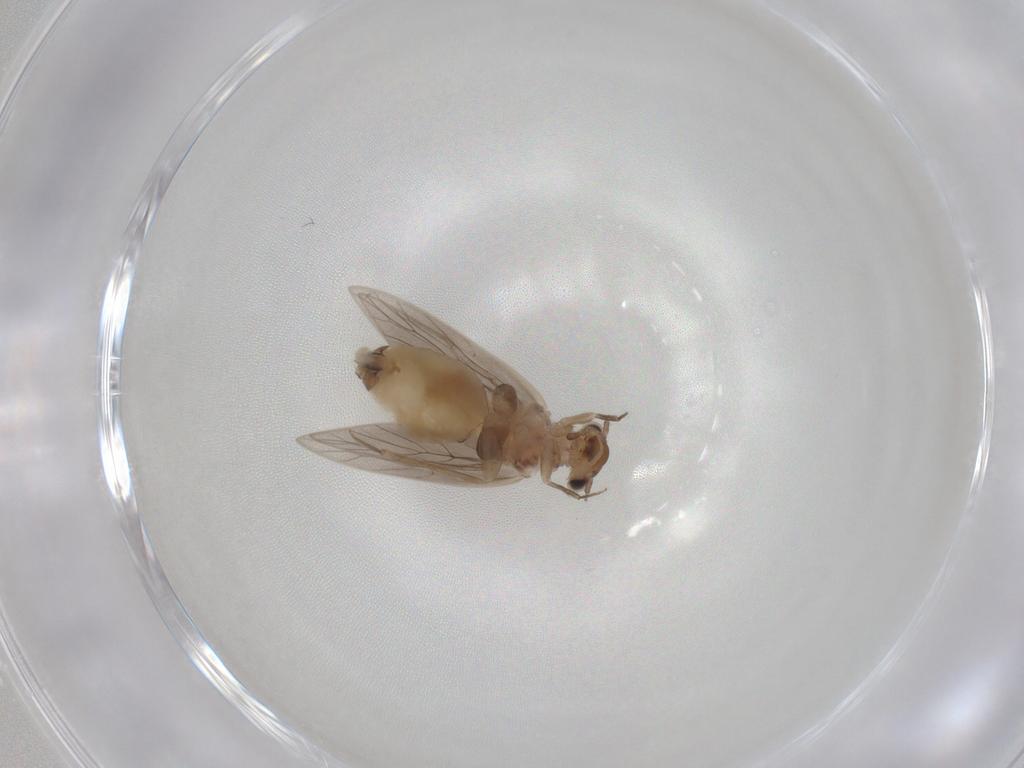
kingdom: Animalia
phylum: Arthropoda
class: Insecta
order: Psocodea
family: Lepidopsocidae
